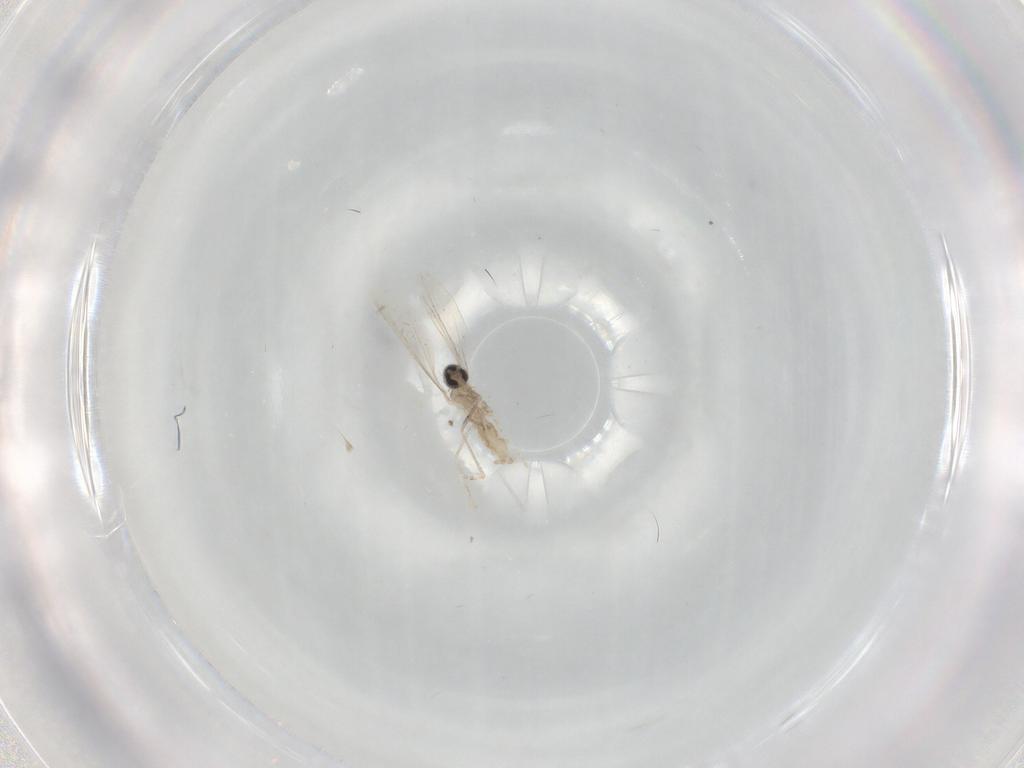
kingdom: Animalia
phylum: Arthropoda
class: Insecta
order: Diptera
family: Cecidomyiidae
